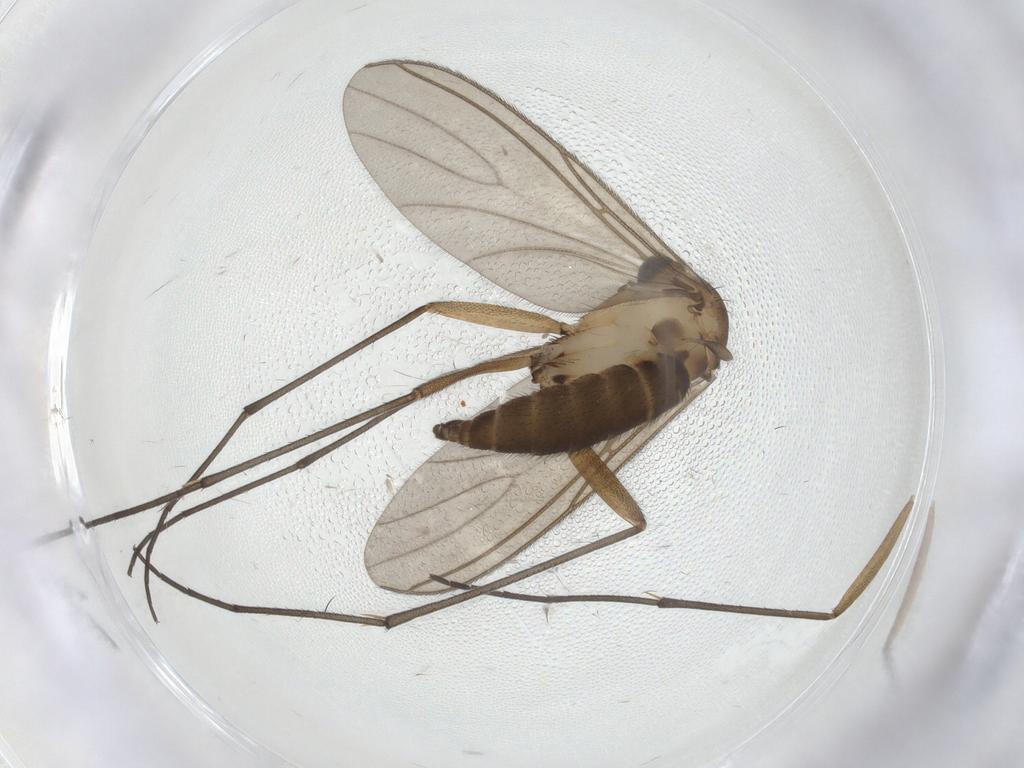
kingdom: Animalia
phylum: Arthropoda
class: Insecta
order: Diptera
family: Sciaridae
